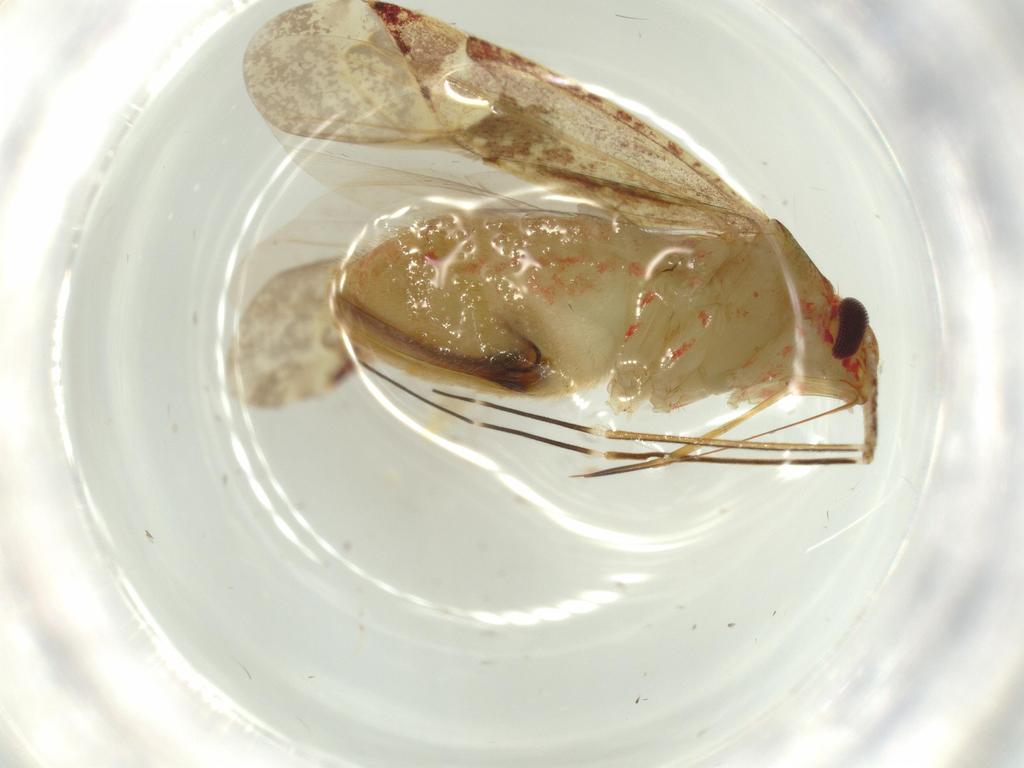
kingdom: Animalia
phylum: Arthropoda
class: Insecta
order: Hemiptera
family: Miridae
